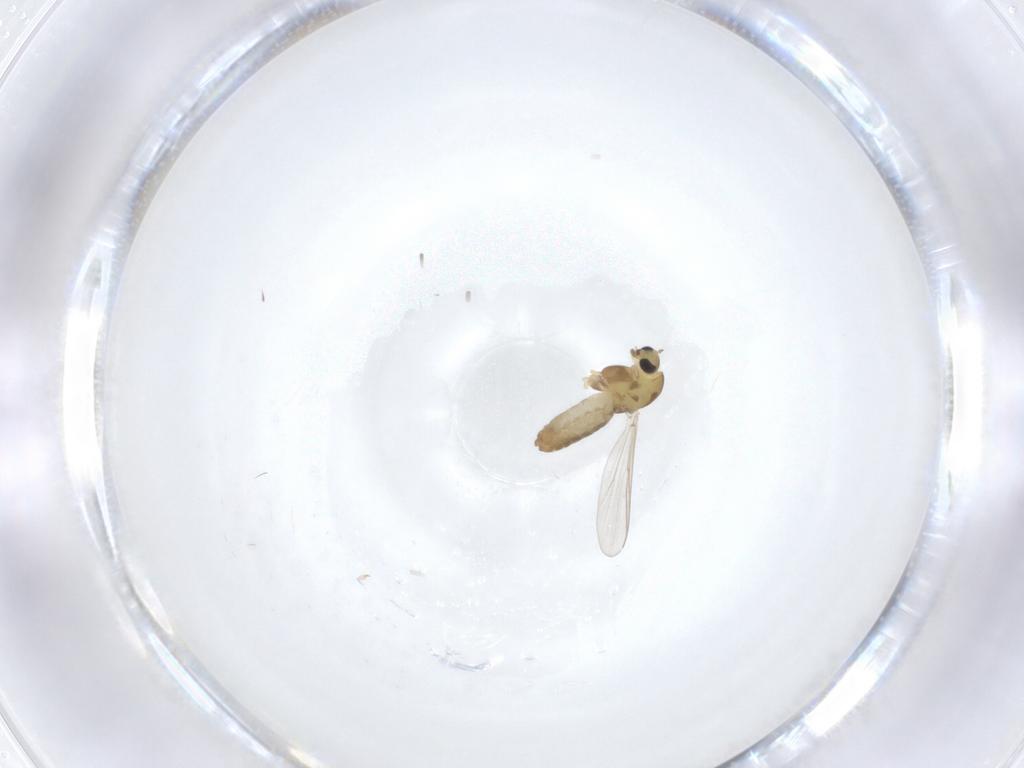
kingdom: Animalia
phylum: Arthropoda
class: Insecta
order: Diptera
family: Chironomidae
